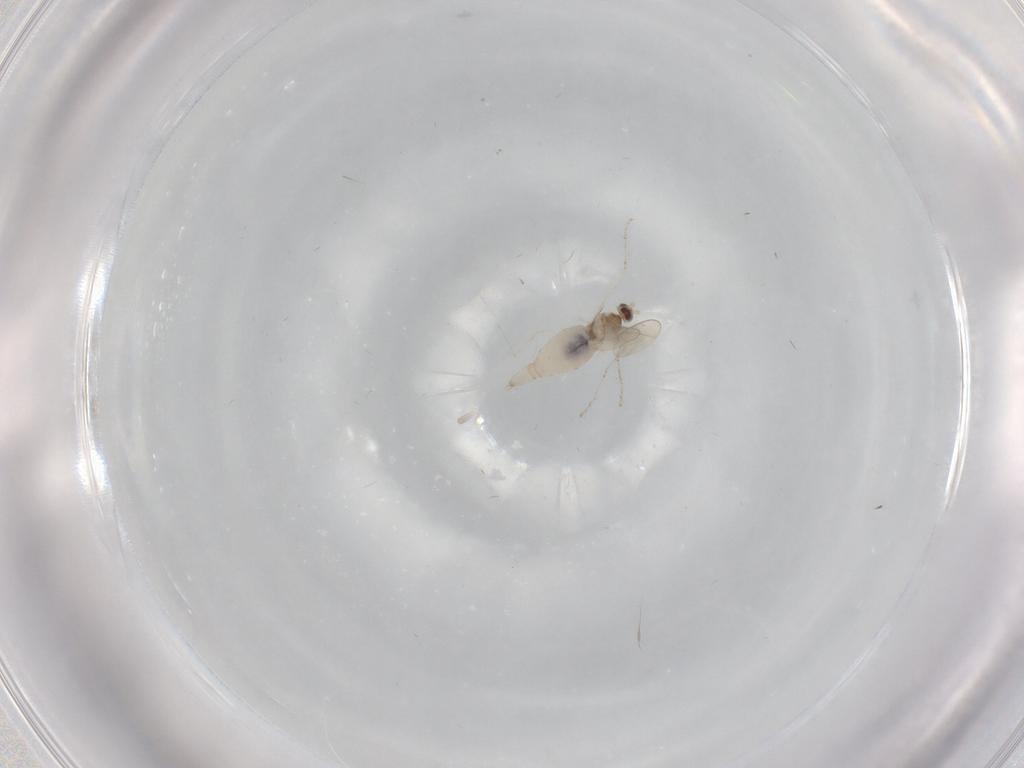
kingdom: Animalia
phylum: Arthropoda
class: Insecta
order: Diptera
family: Cecidomyiidae
